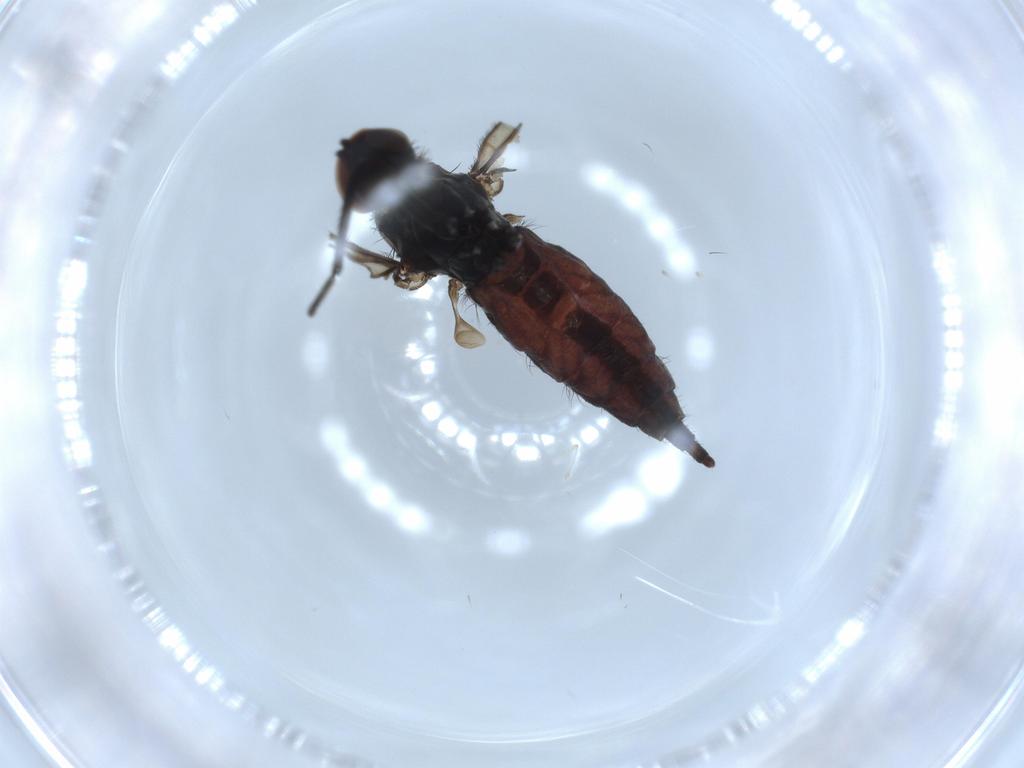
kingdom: Animalia
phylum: Arthropoda
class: Insecta
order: Diptera
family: Hybotidae
